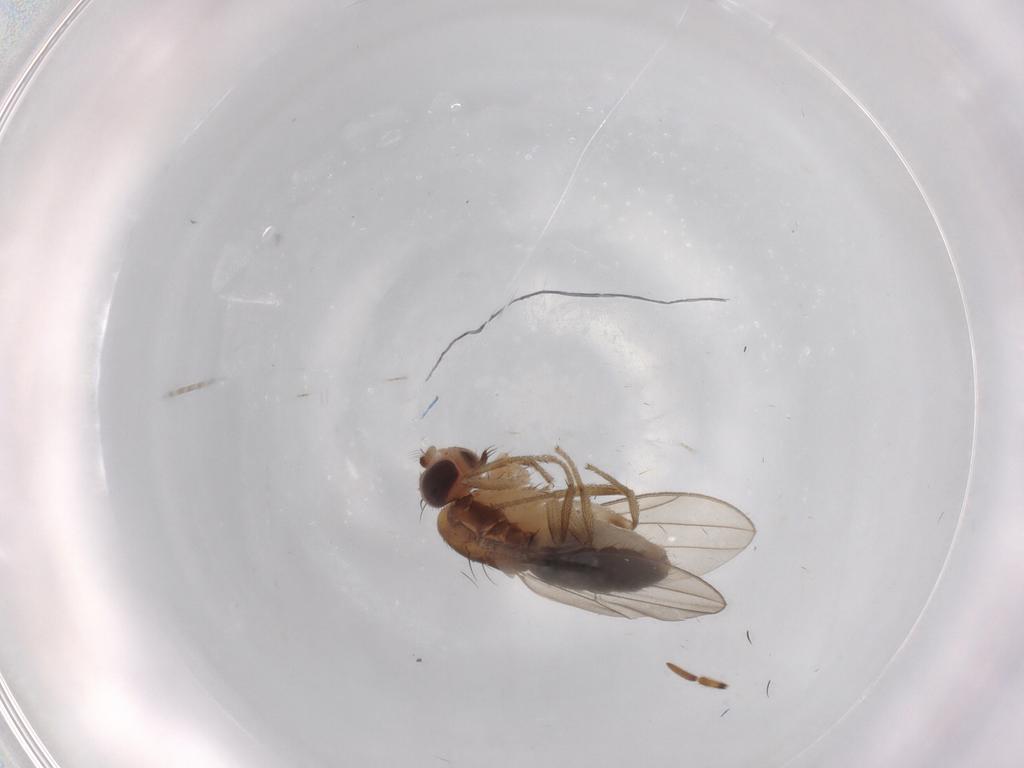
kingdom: Animalia
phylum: Arthropoda
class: Insecta
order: Diptera
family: Drosophilidae
